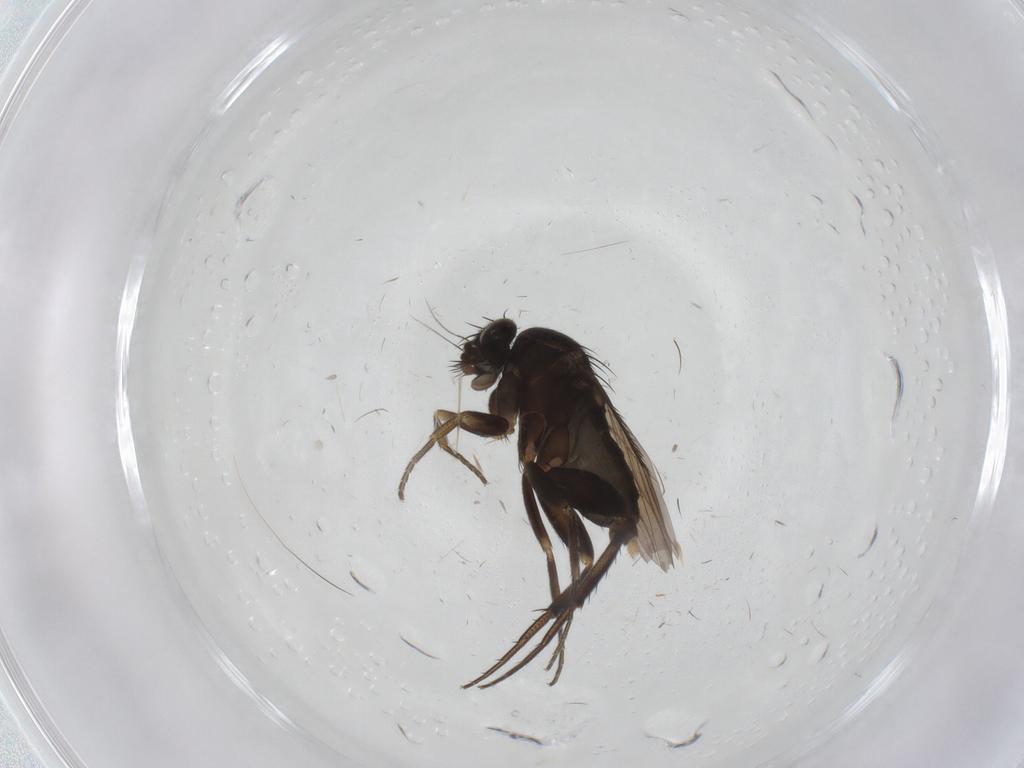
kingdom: Animalia
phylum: Arthropoda
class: Insecta
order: Diptera
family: Phoridae
